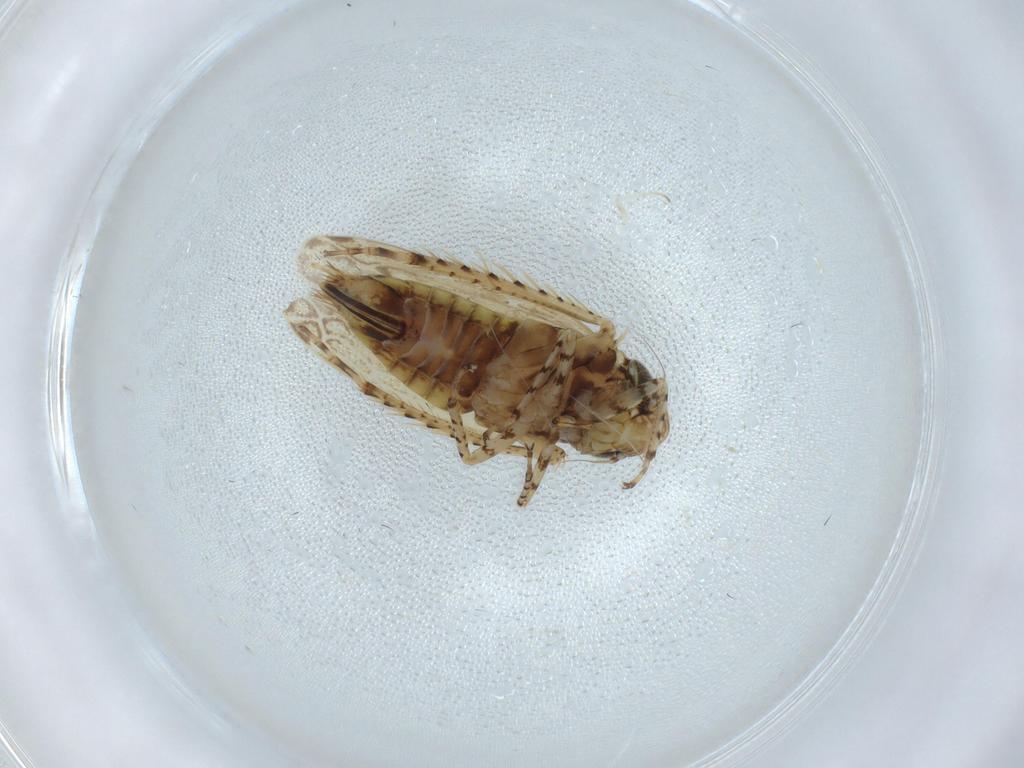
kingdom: Animalia
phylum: Arthropoda
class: Insecta
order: Hemiptera
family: Cicadellidae
